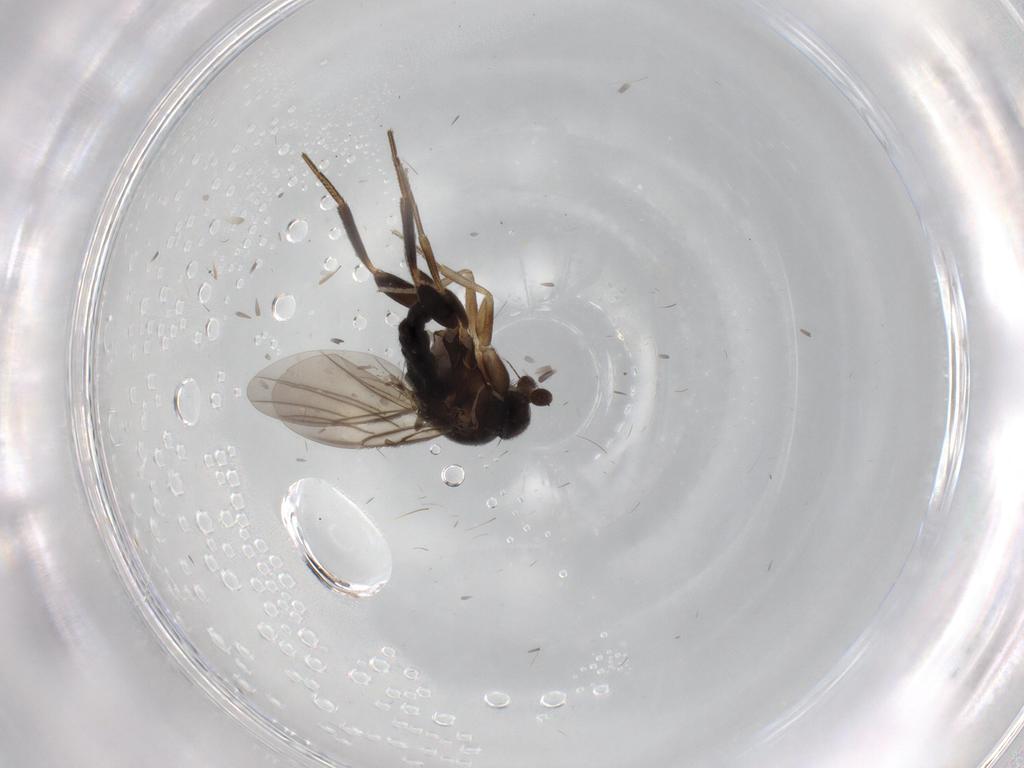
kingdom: Animalia
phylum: Arthropoda
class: Insecta
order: Diptera
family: Phoridae
